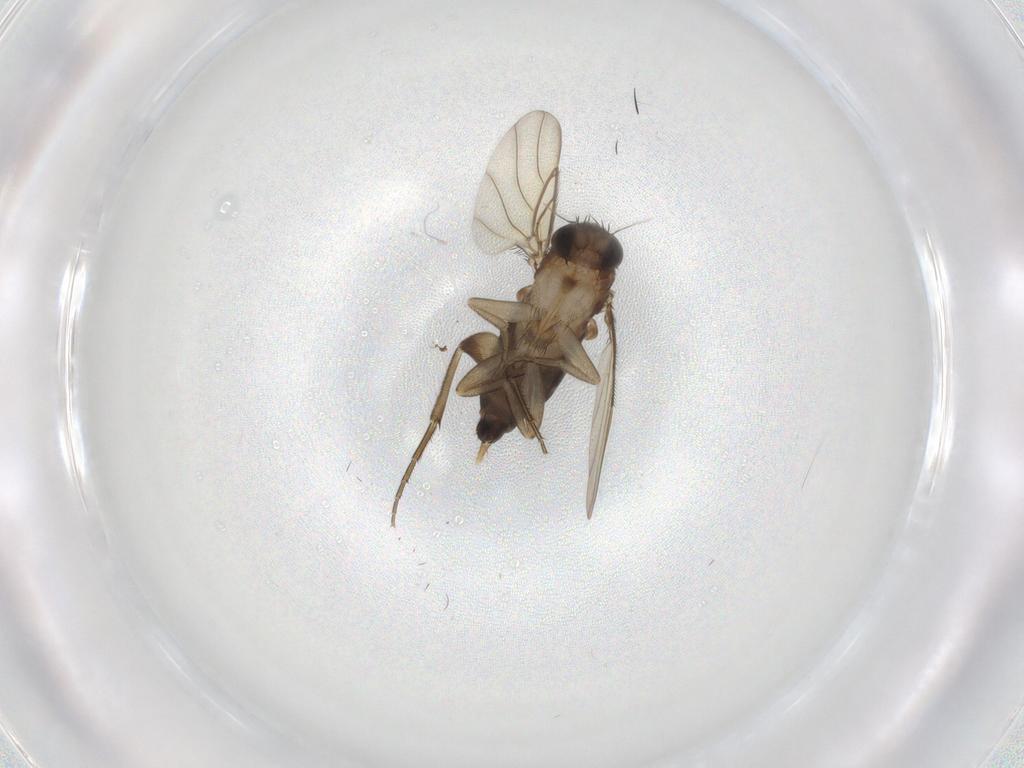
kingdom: Animalia
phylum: Arthropoda
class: Insecta
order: Diptera
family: Phoridae
